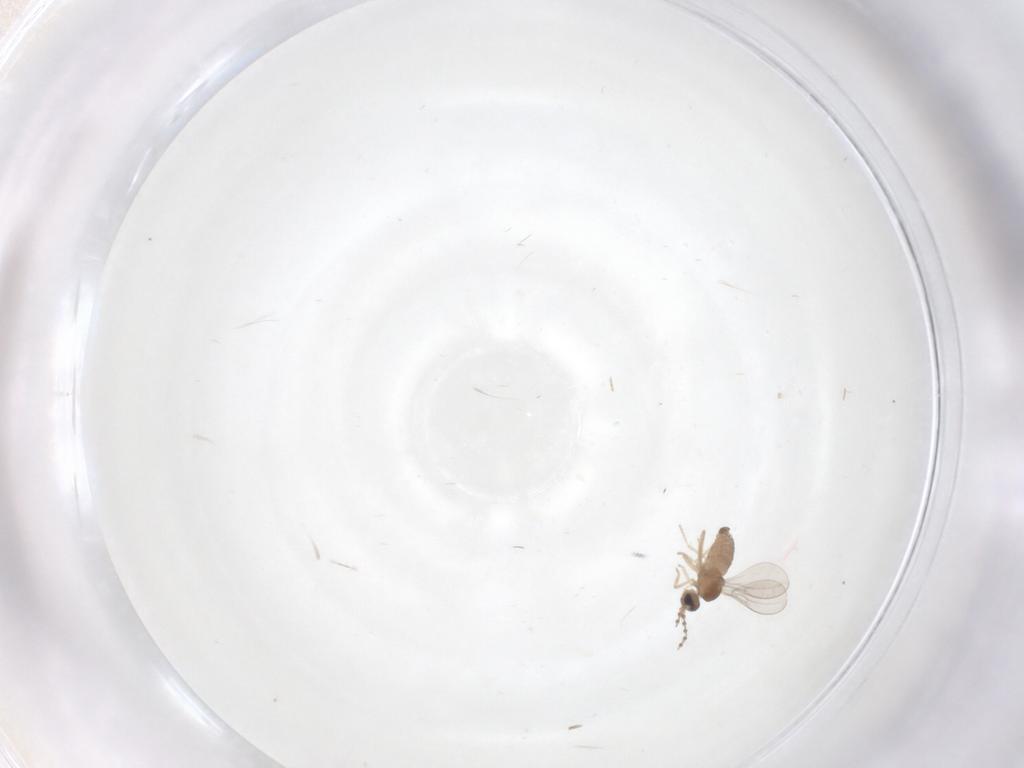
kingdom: Animalia
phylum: Arthropoda
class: Insecta
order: Diptera
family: Cecidomyiidae
